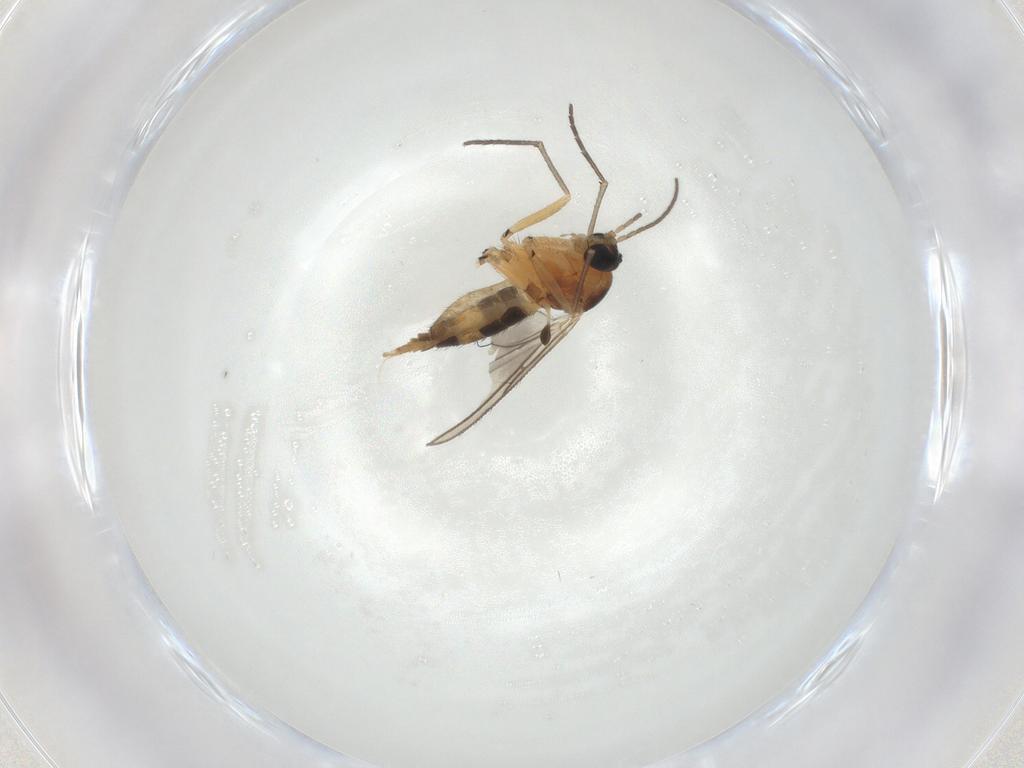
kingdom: Animalia
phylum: Arthropoda
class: Insecta
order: Diptera
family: Sciaridae
